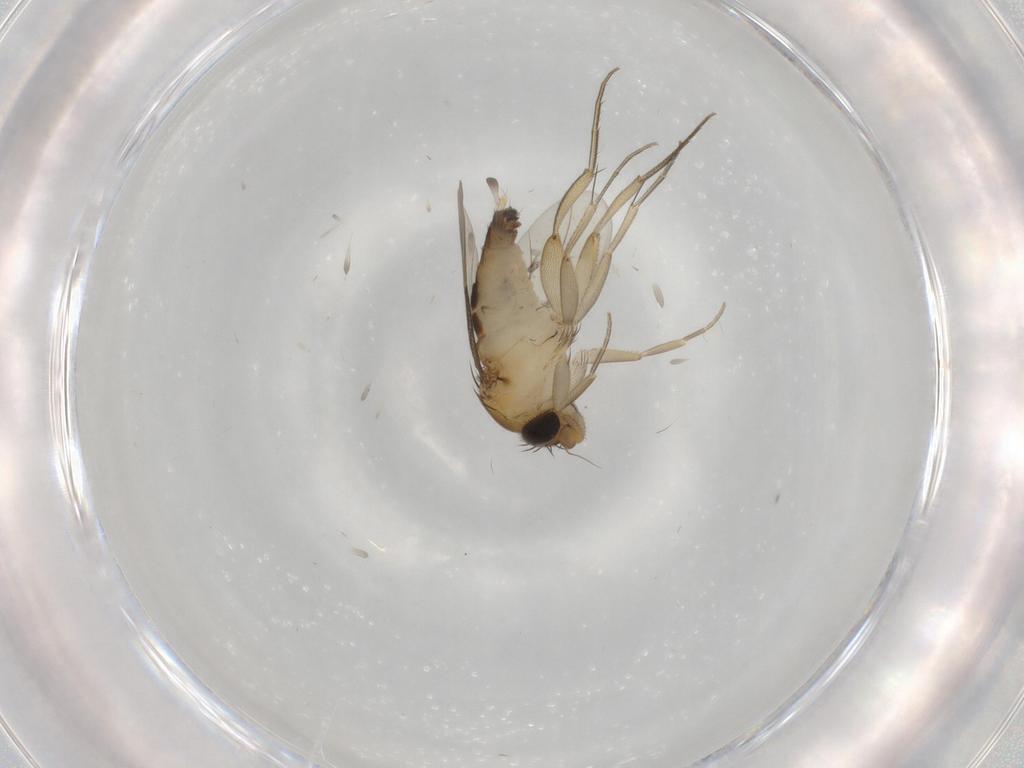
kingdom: Animalia
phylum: Arthropoda
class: Insecta
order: Diptera
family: Phoridae
